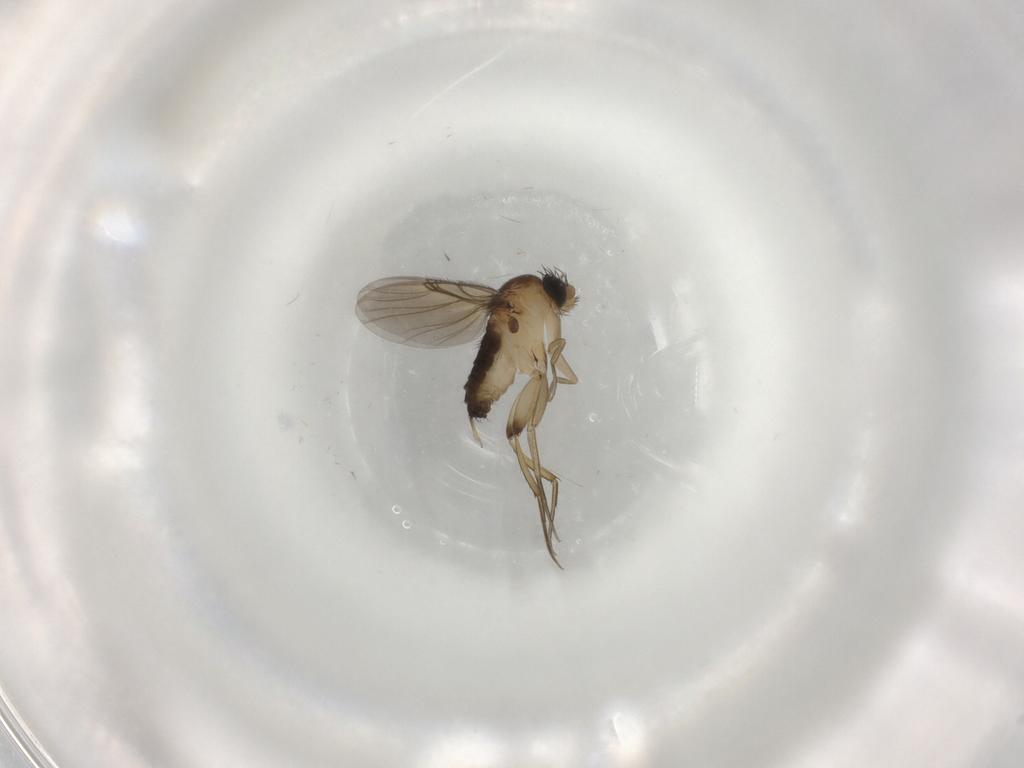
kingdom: Animalia
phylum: Arthropoda
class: Insecta
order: Diptera
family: Phoridae
